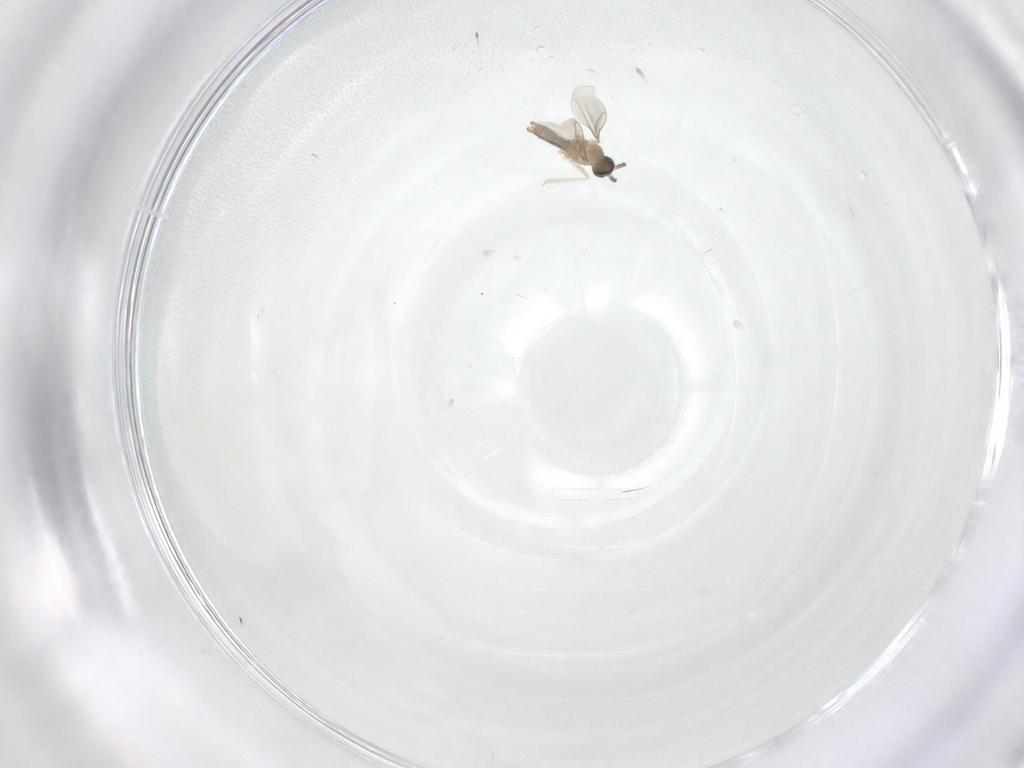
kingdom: Animalia
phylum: Arthropoda
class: Insecta
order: Diptera
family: Cecidomyiidae
